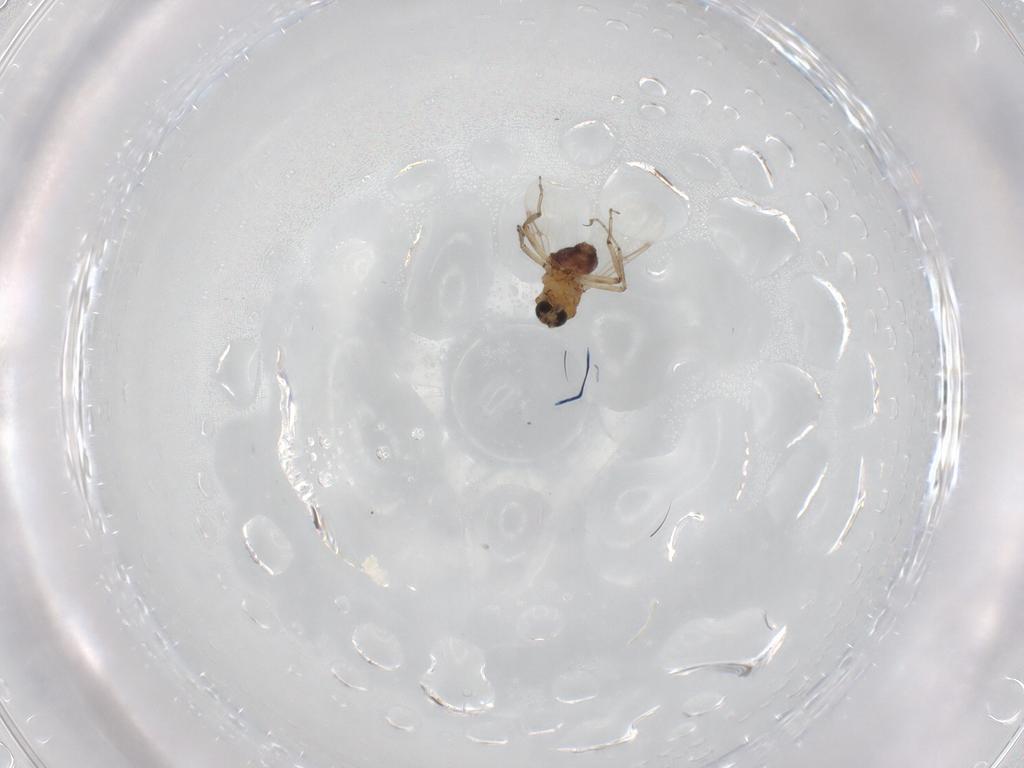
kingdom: Animalia
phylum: Arthropoda
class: Insecta
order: Diptera
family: Ceratopogonidae
